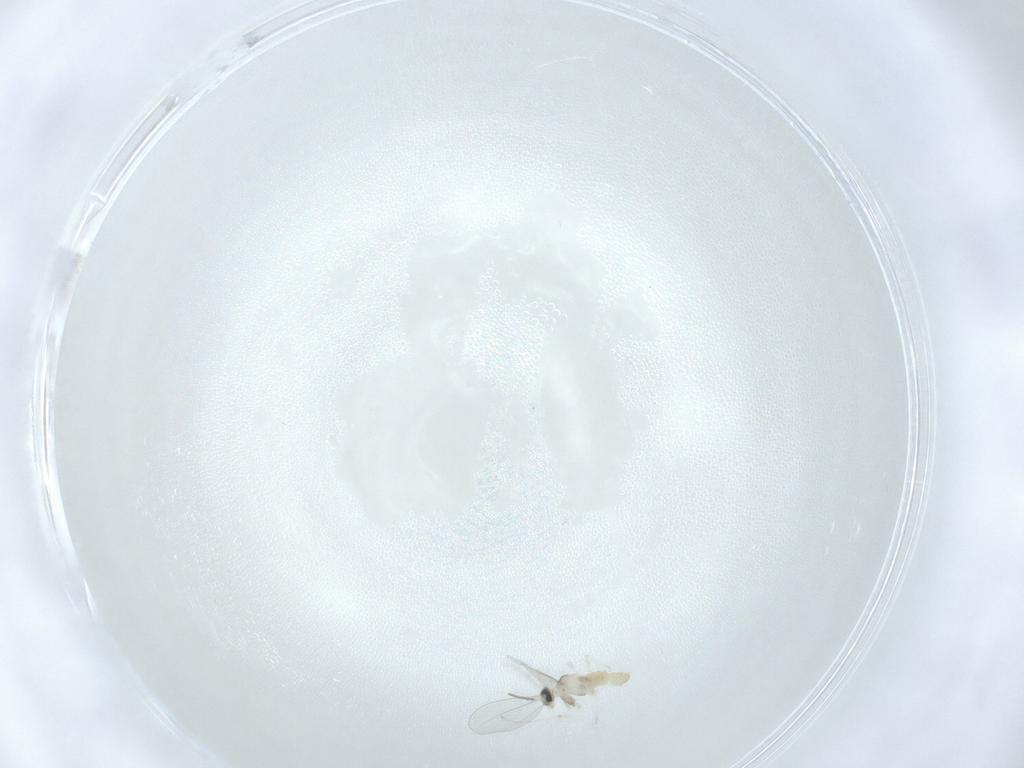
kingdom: Animalia
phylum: Arthropoda
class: Insecta
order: Diptera
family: Cecidomyiidae
